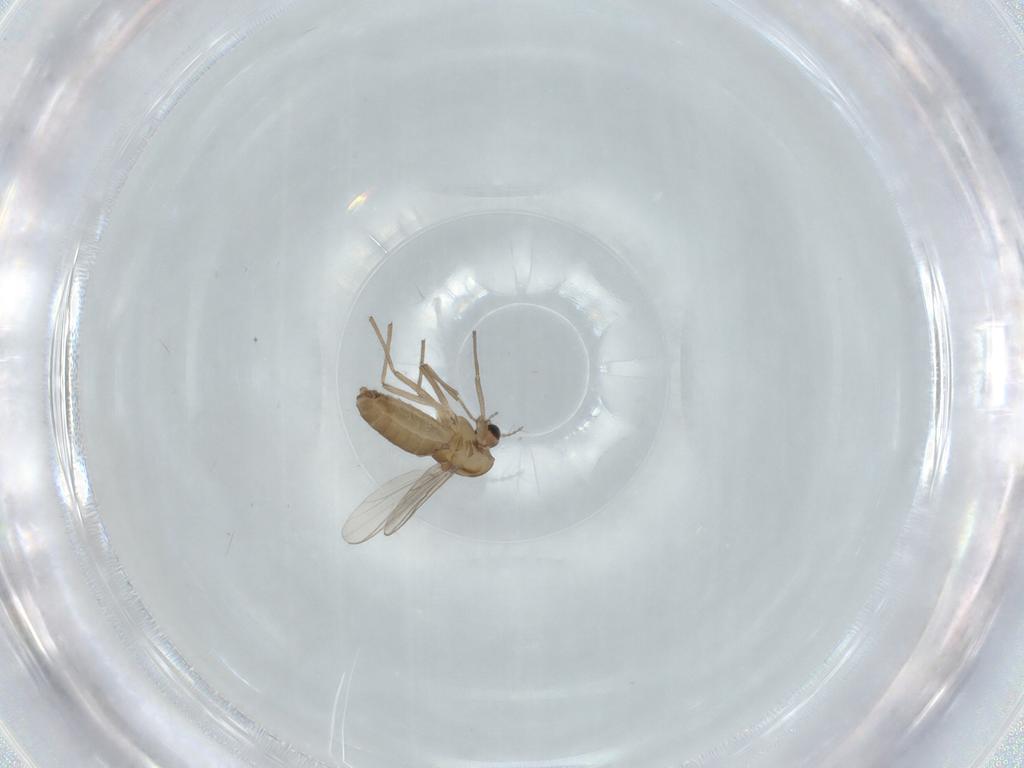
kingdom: Animalia
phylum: Arthropoda
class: Insecta
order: Diptera
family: Chironomidae
